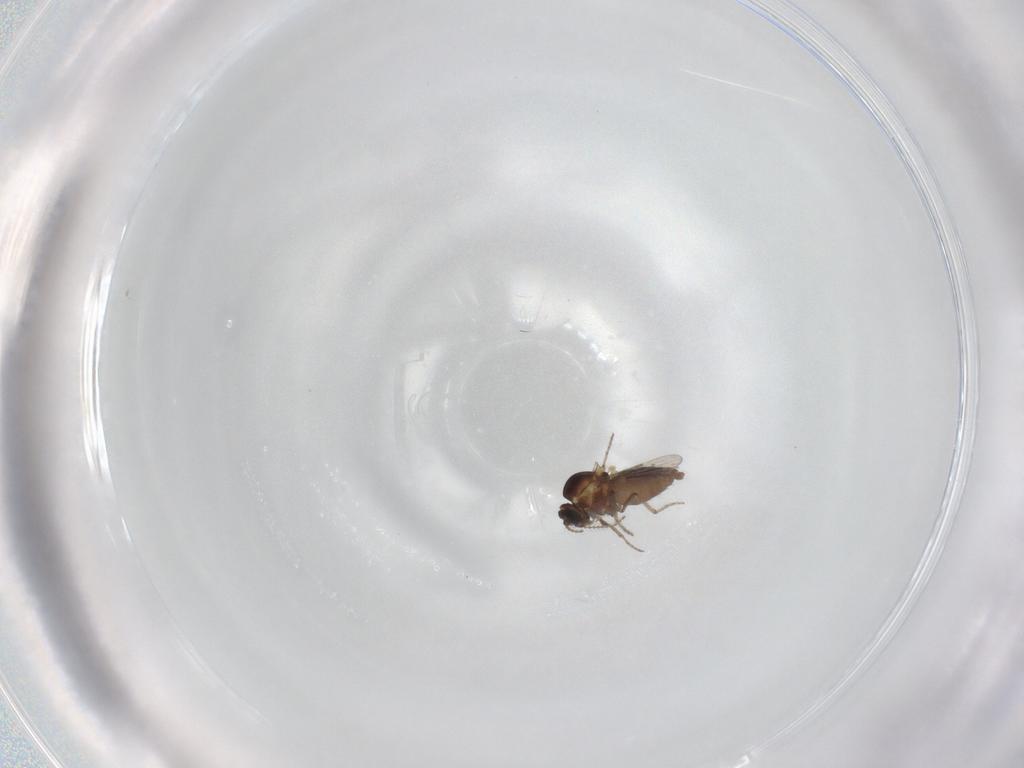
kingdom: Animalia
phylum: Arthropoda
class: Insecta
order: Diptera
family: Ceratopogonidae
